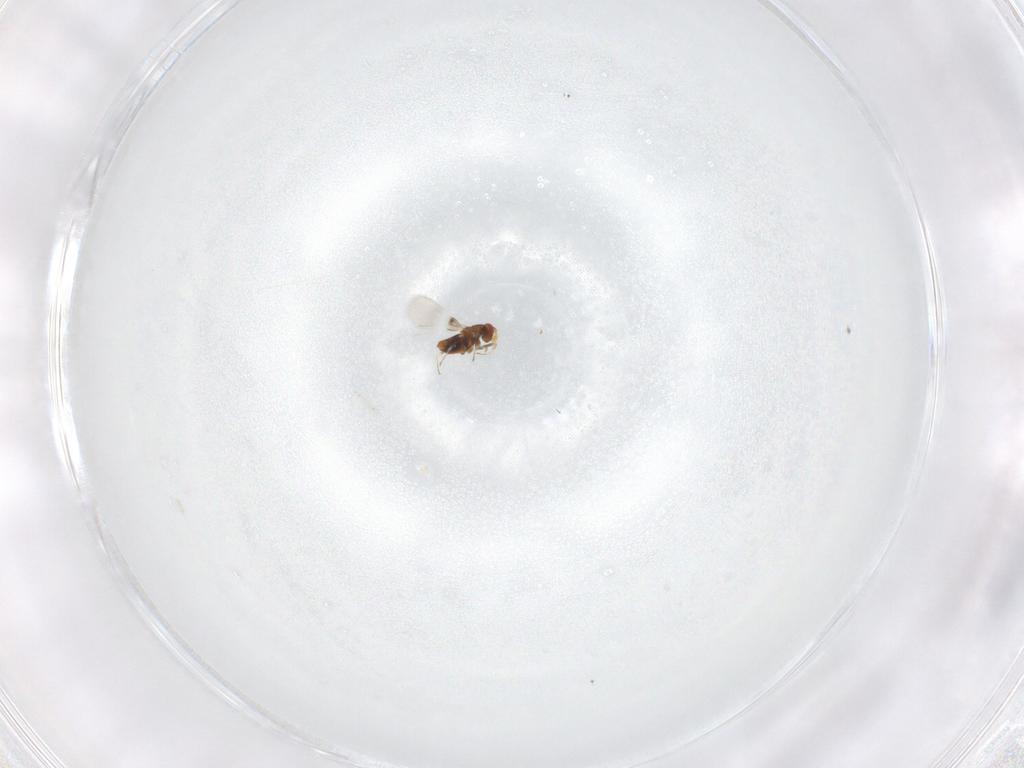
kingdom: Animalia
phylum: Arthropoda
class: Insecta
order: Hymenoptera
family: Trichogrammatidae
